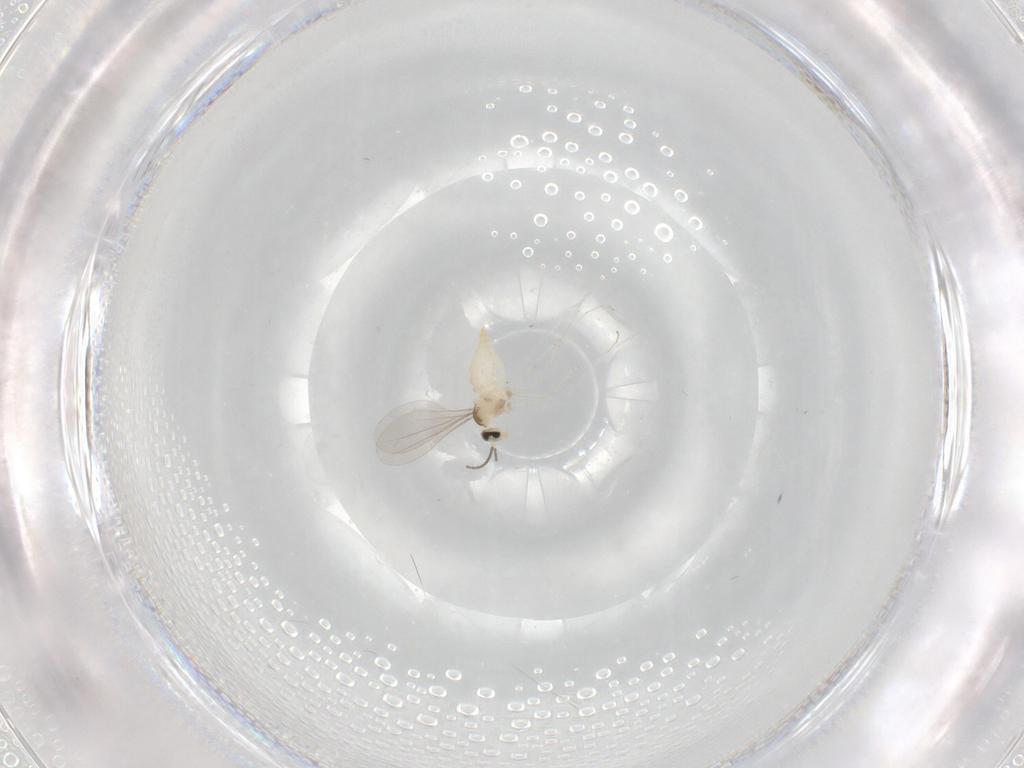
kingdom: Animalia
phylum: Arthropoda
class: Insecta
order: Diptera
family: Cecidomyiidae
